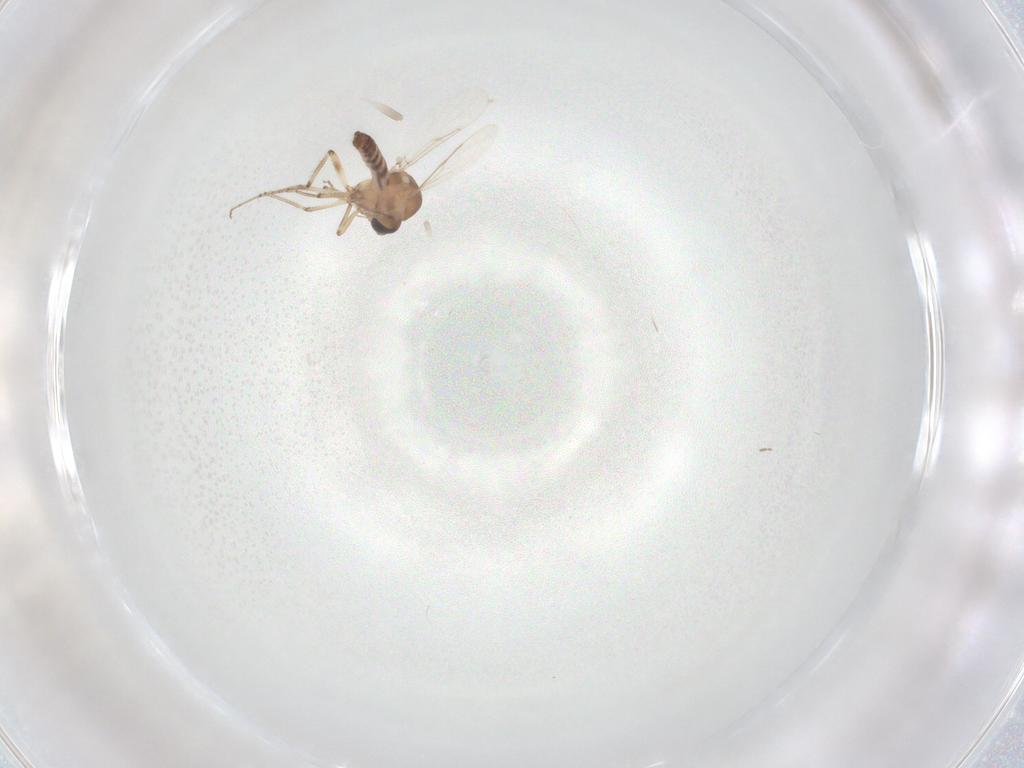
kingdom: Animalia
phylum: Arthropoda
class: Insecta
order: Diptera
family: Ceratopogonidae
